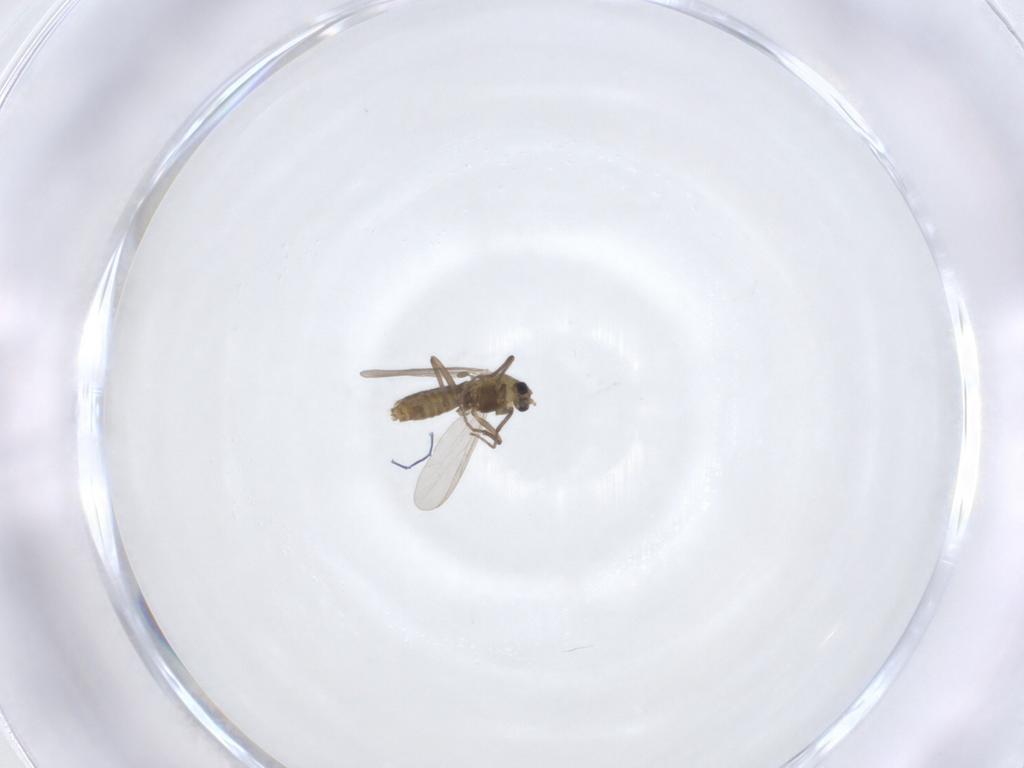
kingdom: Animalia
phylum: Arthropoda
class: Insecta
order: Diptera
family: Chironomidae
